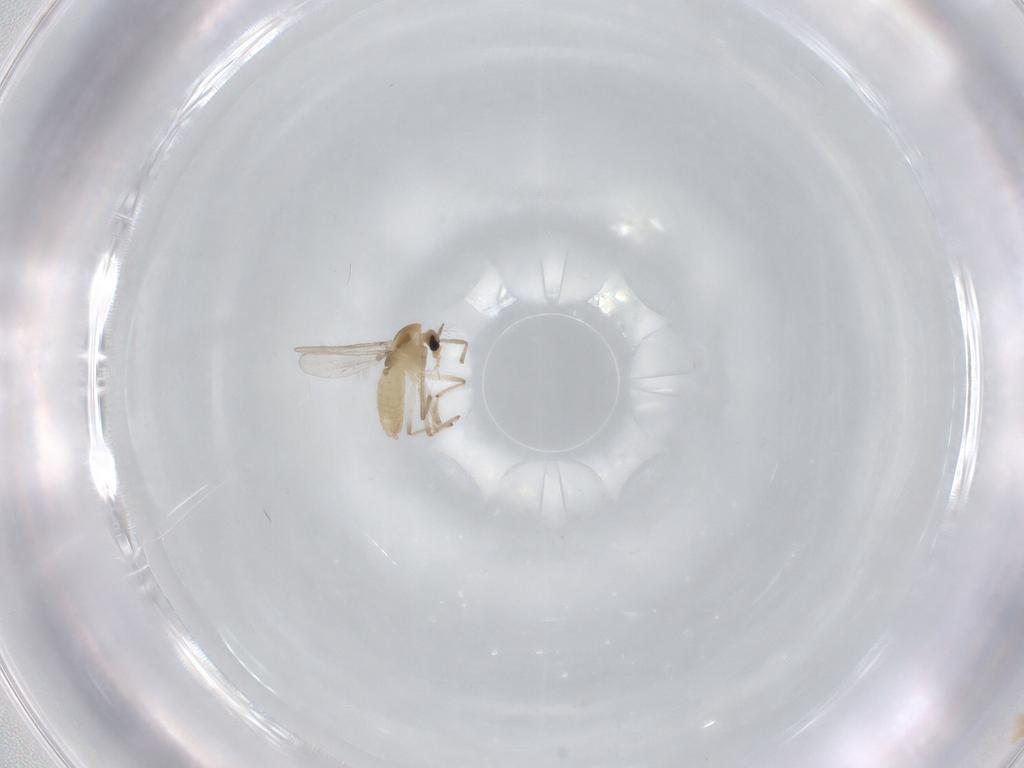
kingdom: Animalia
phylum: Arthropoda
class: Insecta
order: Diptera
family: Chironomidae
